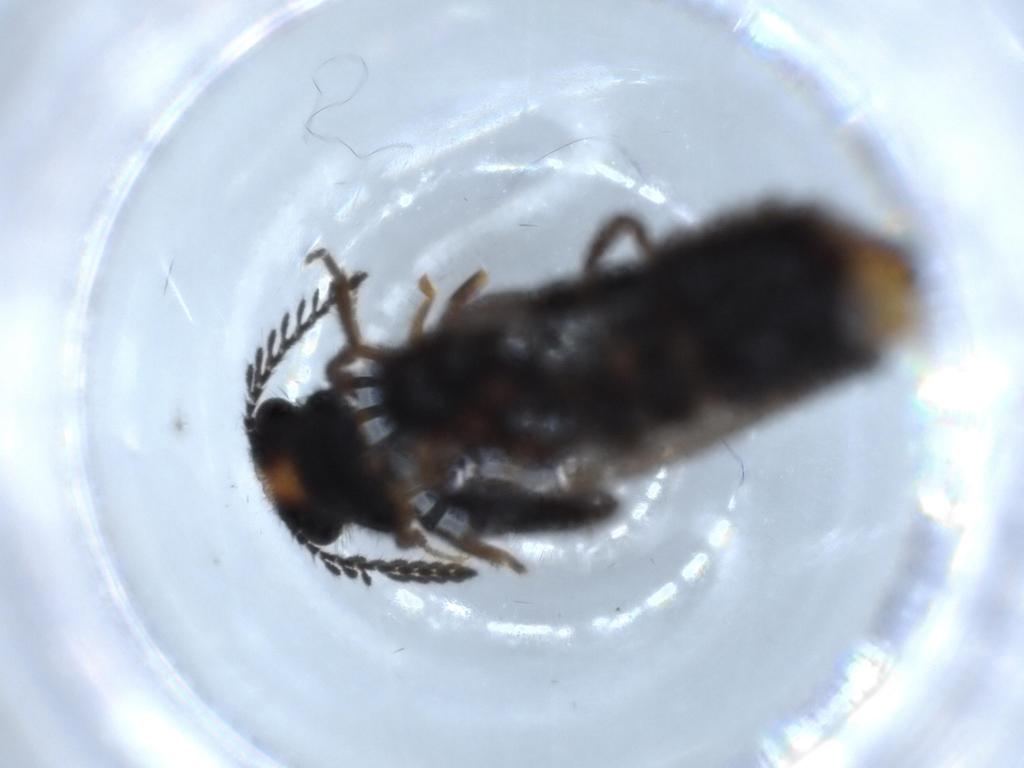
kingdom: Animalia
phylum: Arthropoda
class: Insecta
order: Coleoptera
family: Phengodidae
